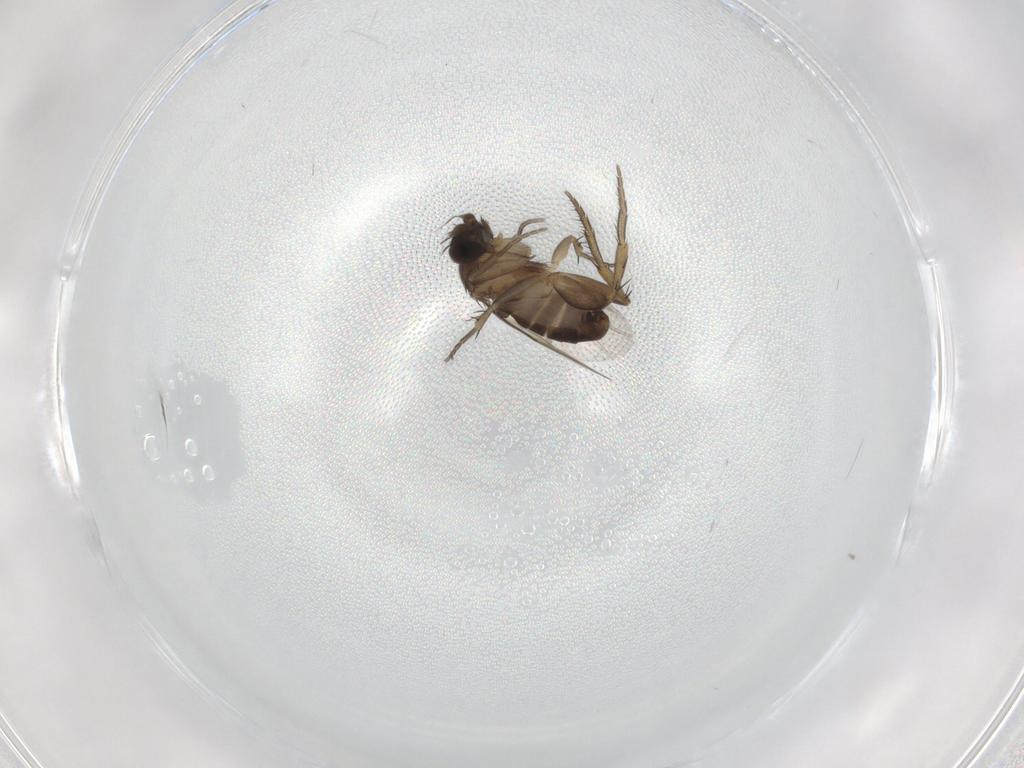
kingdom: Animalia
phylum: Arthropoda
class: Insecta
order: Diptera
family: Phoridae
